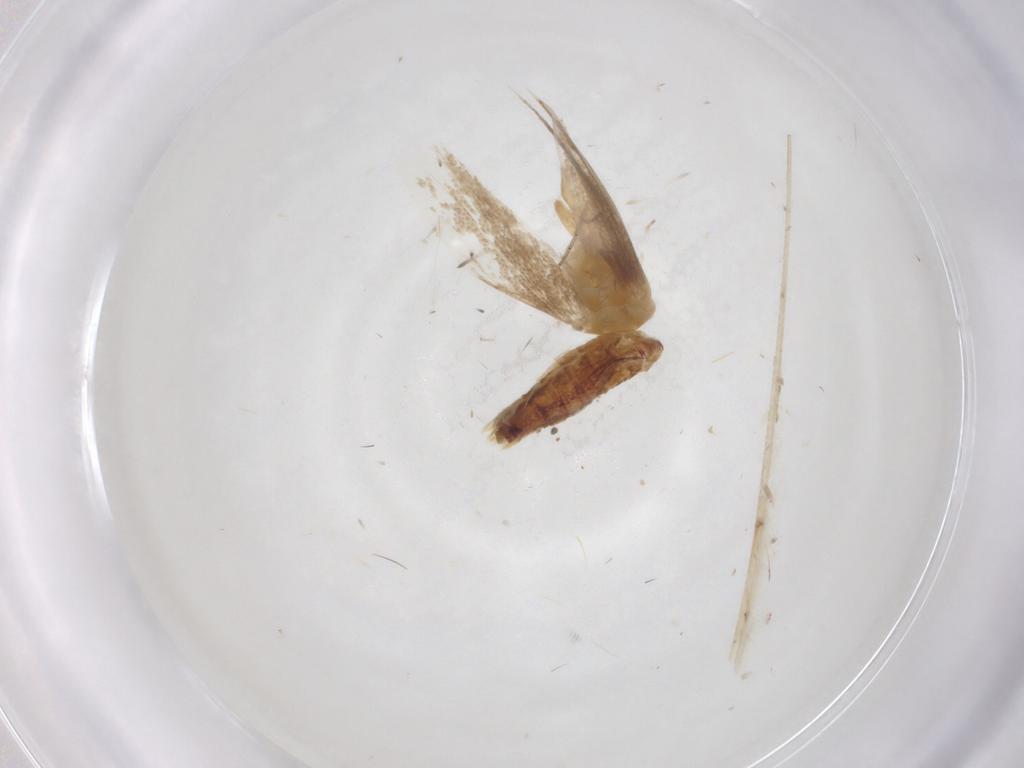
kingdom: Animalia
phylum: Arthropoda
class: Insecta
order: Lepidoptera
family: Bucculatricidae
